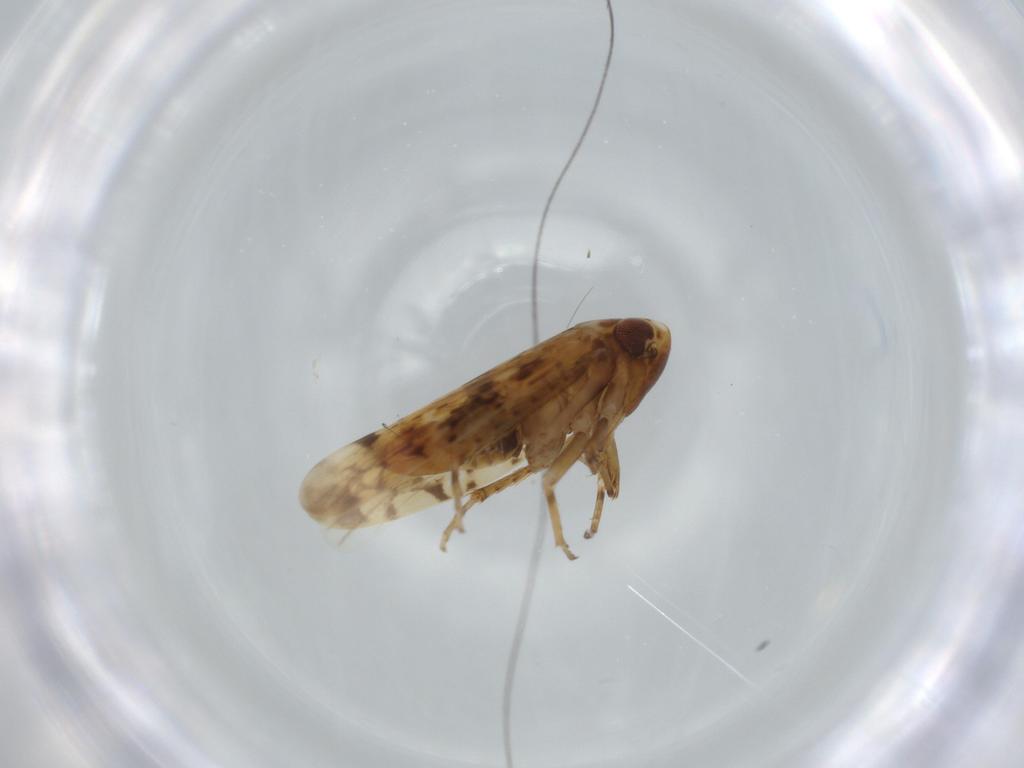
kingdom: Animalia
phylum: Arthropoda
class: Insecta
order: Hemiptera
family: Cicadellidae
